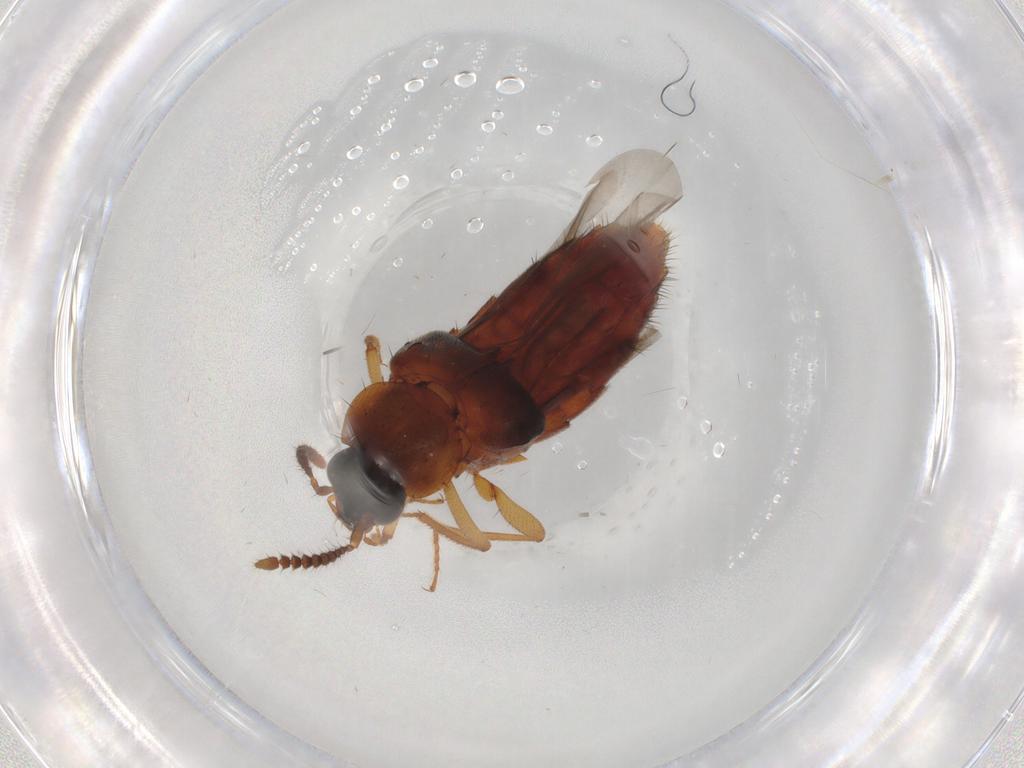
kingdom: Animalia
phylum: Arthropoda
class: Insecta
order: Coleoptera
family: Staphylinidae
